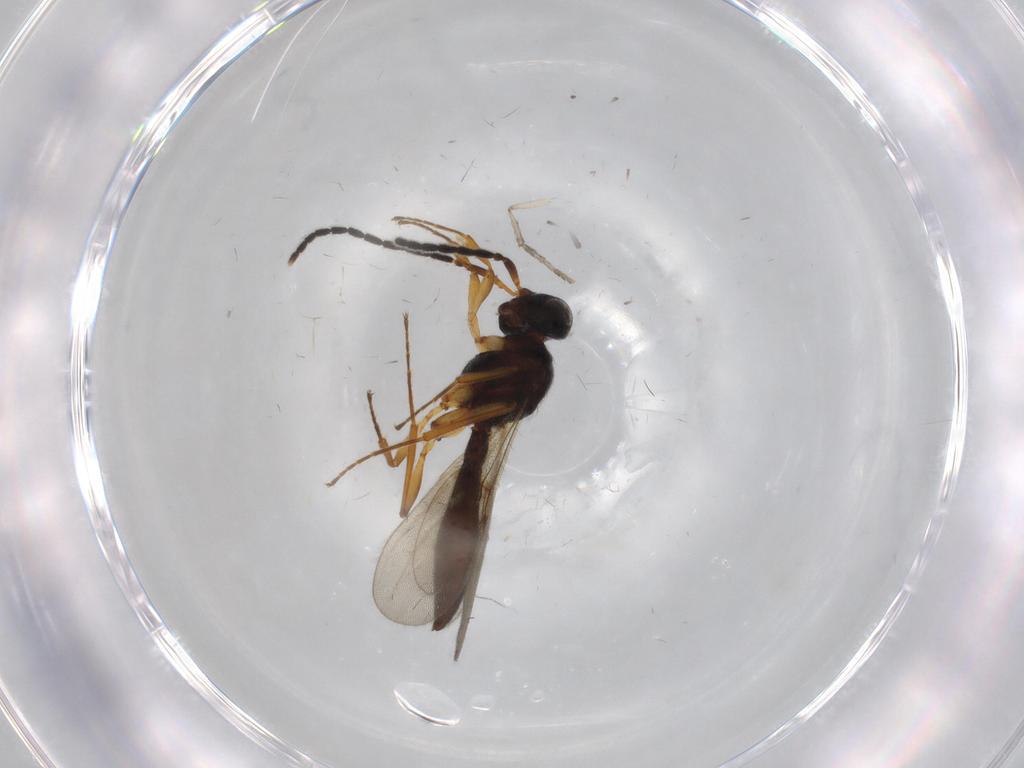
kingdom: Animalia
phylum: Arthropoda
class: Insecta
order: Hymenoptera
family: Scelionidae
